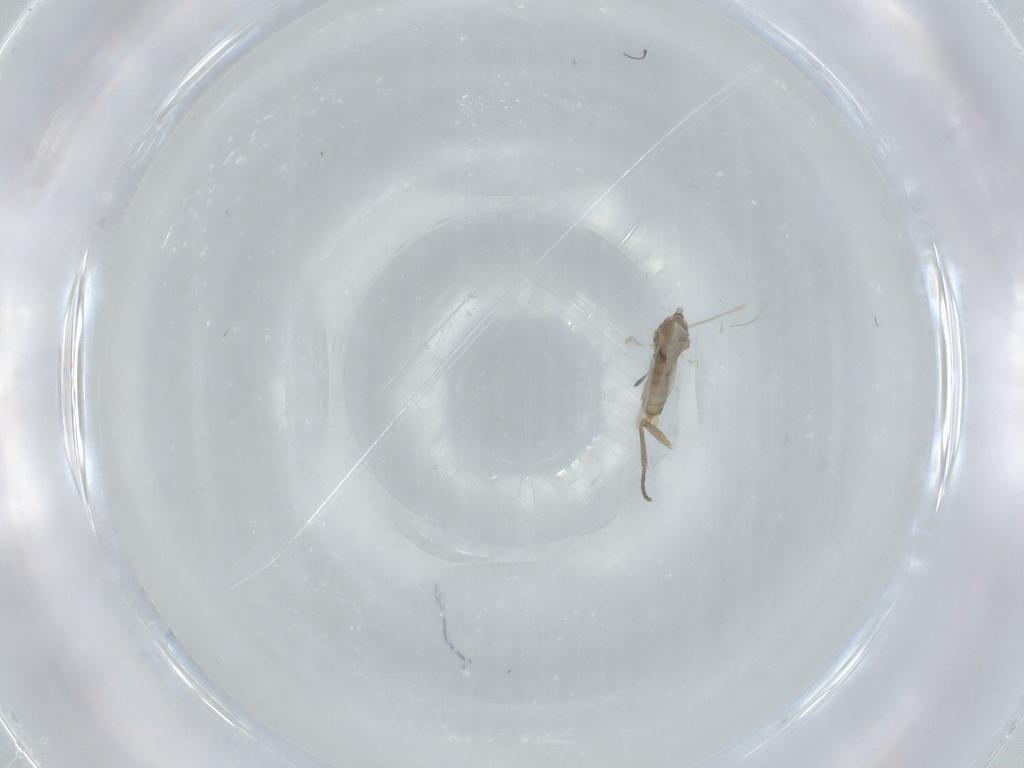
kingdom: Animalia
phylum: Arthropoda
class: Insecta
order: Diptera
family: Cecidomyiidae
